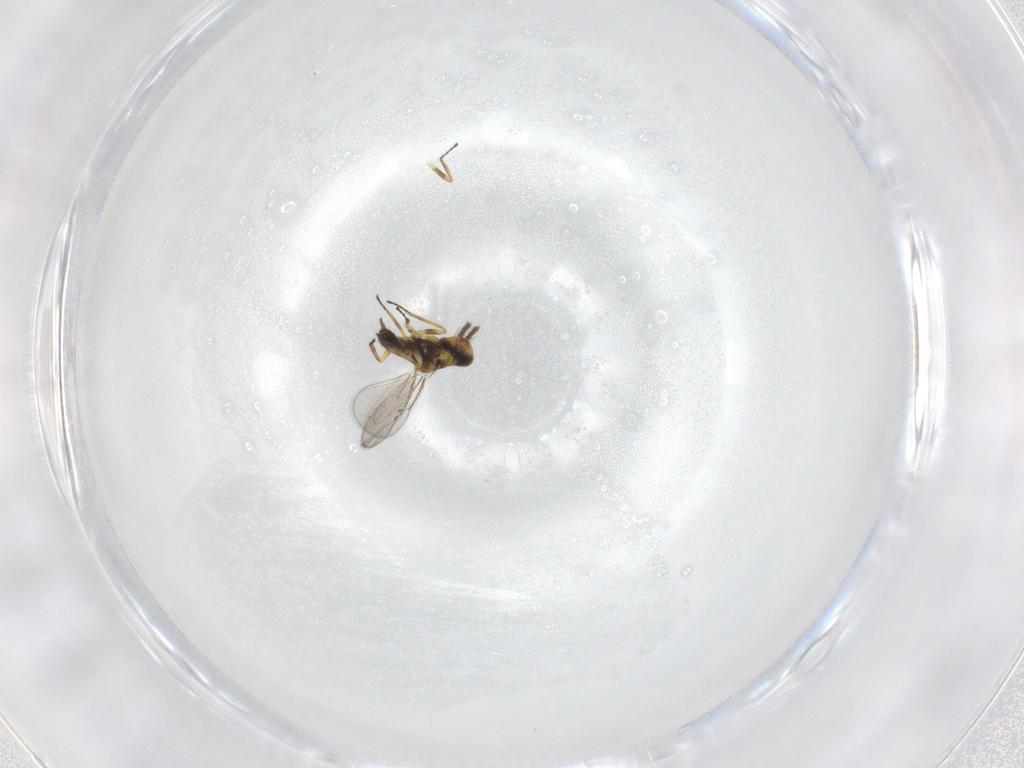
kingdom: Animalia
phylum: Arthropoda
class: Insecta
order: Hymenoptera
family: Eulophidae
